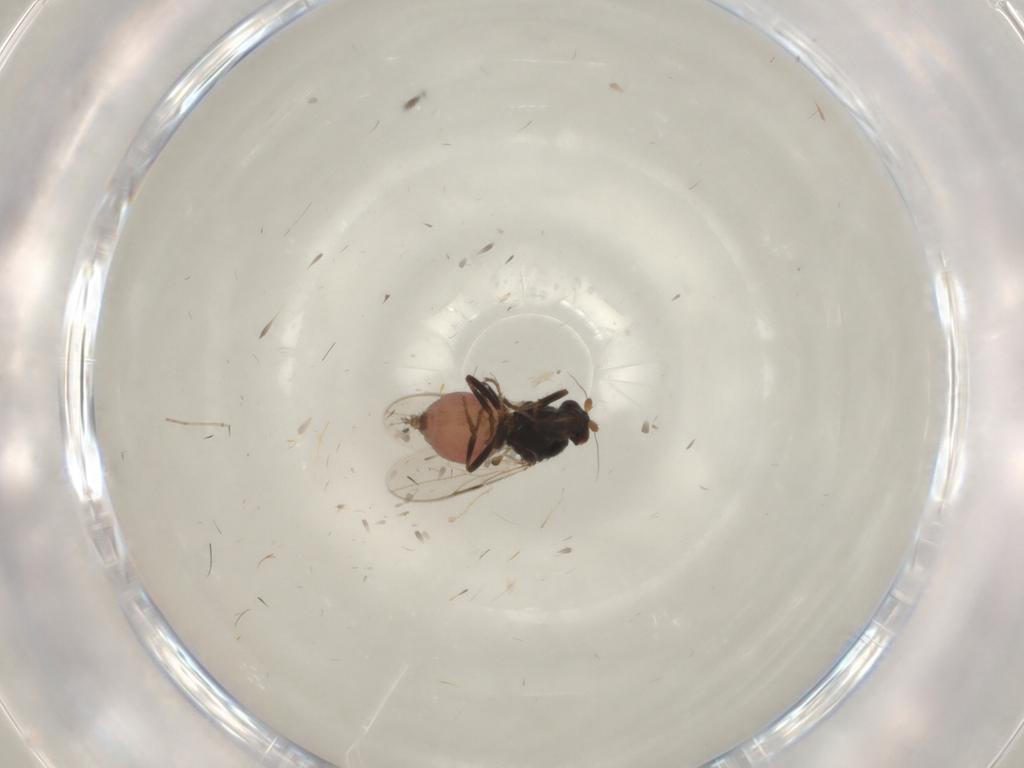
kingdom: Animalia
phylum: Arthropoda
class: Insecta
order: Diptera
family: Sphaeroceridae
